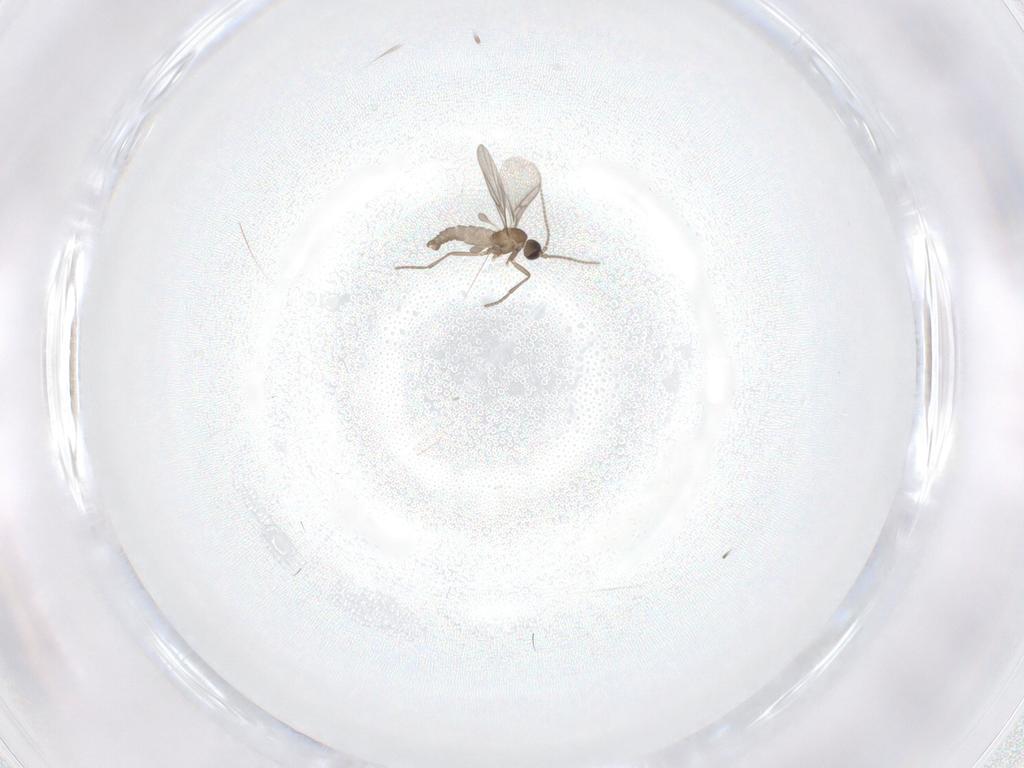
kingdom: Animalia
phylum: Arthropoda
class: Insecta
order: Diptera
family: Sciaridae
